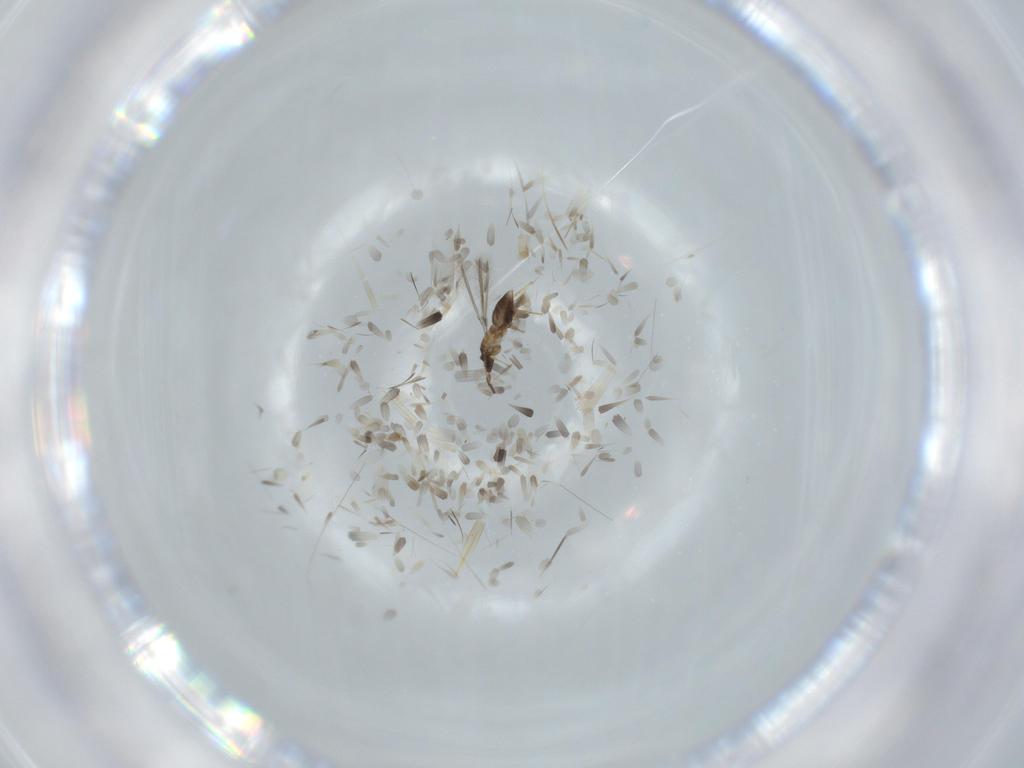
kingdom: Animalia
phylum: Arthropoda
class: Insecta
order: Hymenoptera
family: Mymaridae
